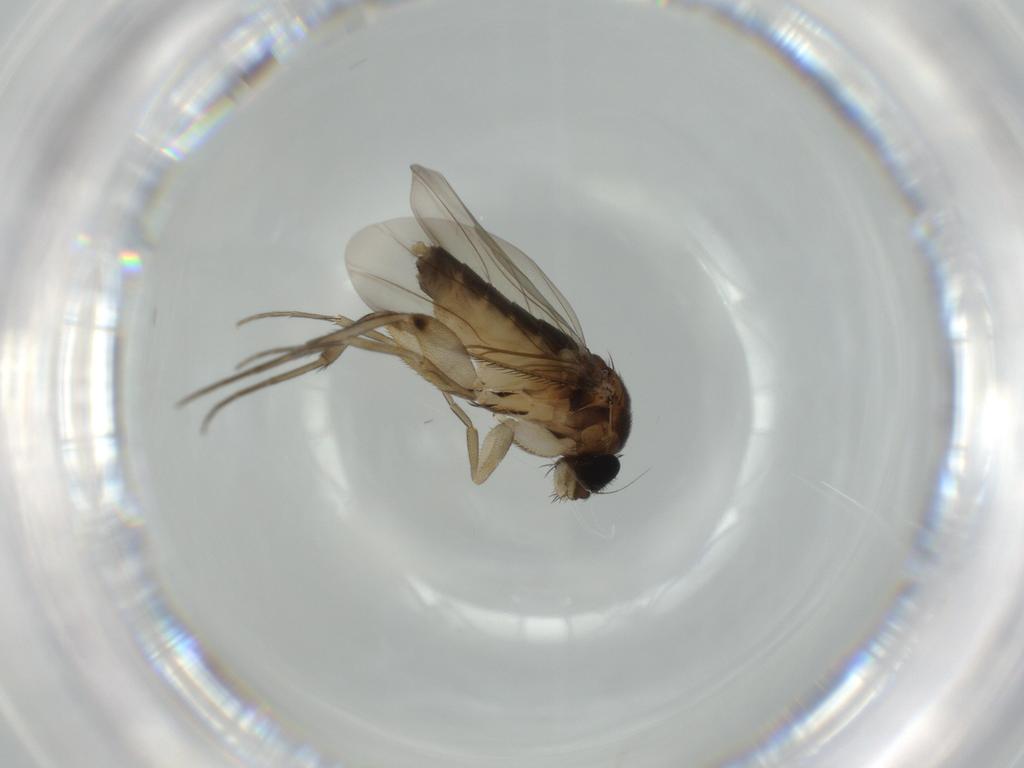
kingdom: Animalia
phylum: Arthropoda
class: Insecta
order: Diptera
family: Phoridae
